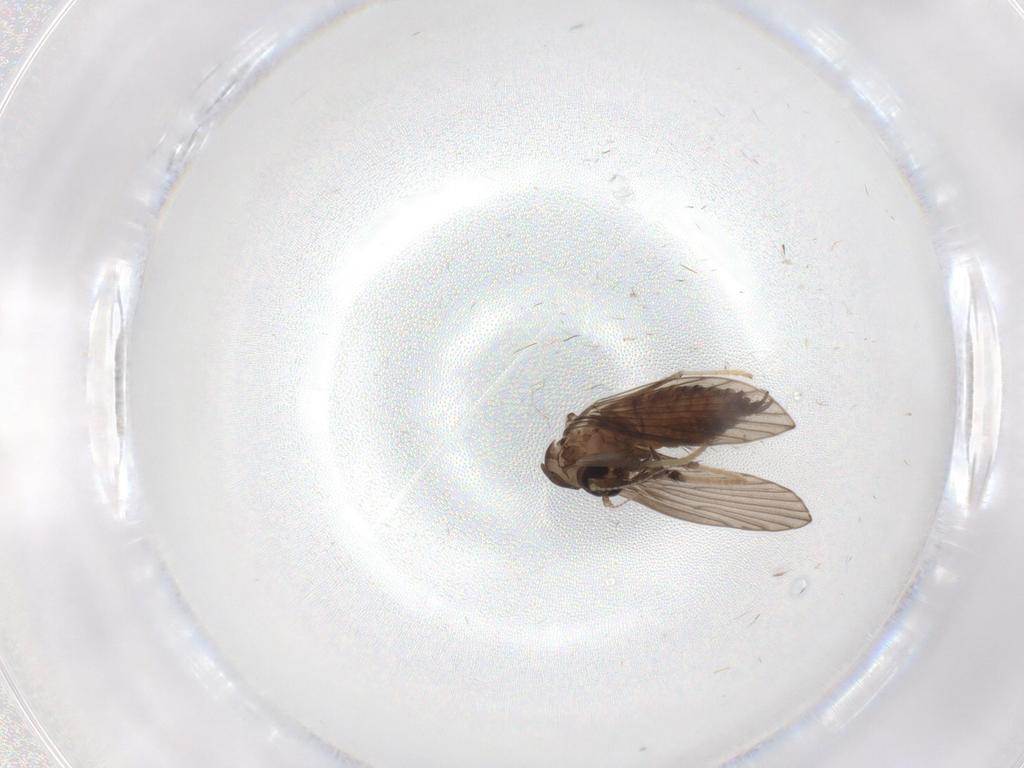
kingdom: Animalia
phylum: Arthropoda
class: Insecta
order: Diptera
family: Psychodidae
